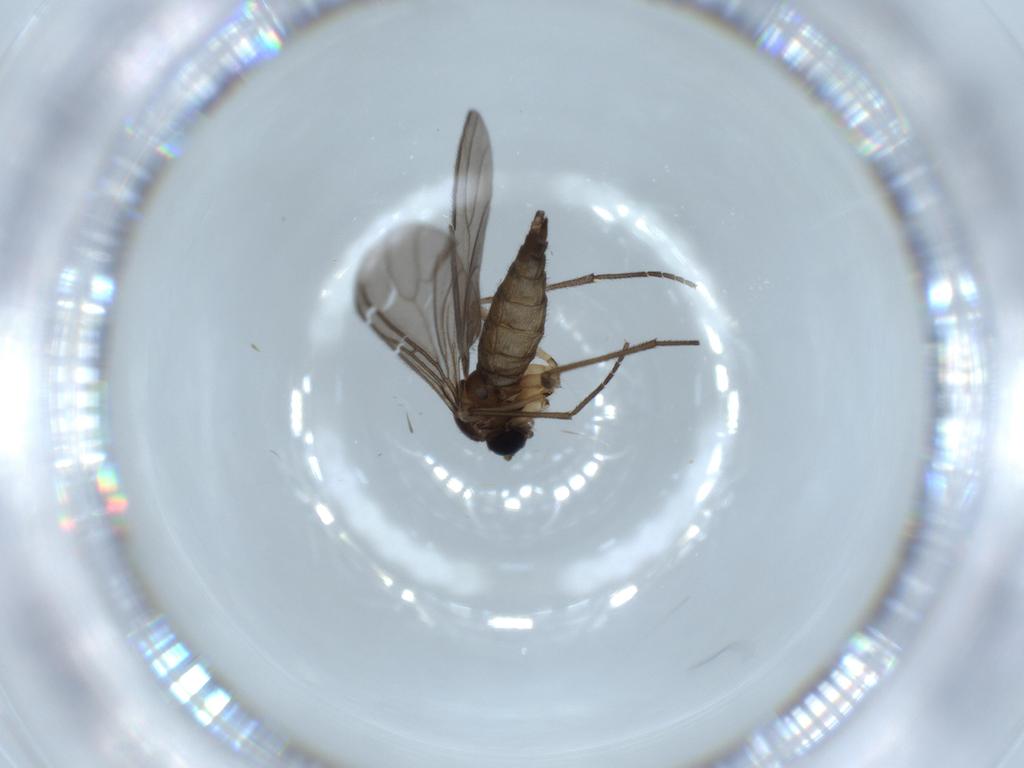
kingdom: Animalia
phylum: Arthropoda
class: Insecta
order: Diptera
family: Sciaridae
